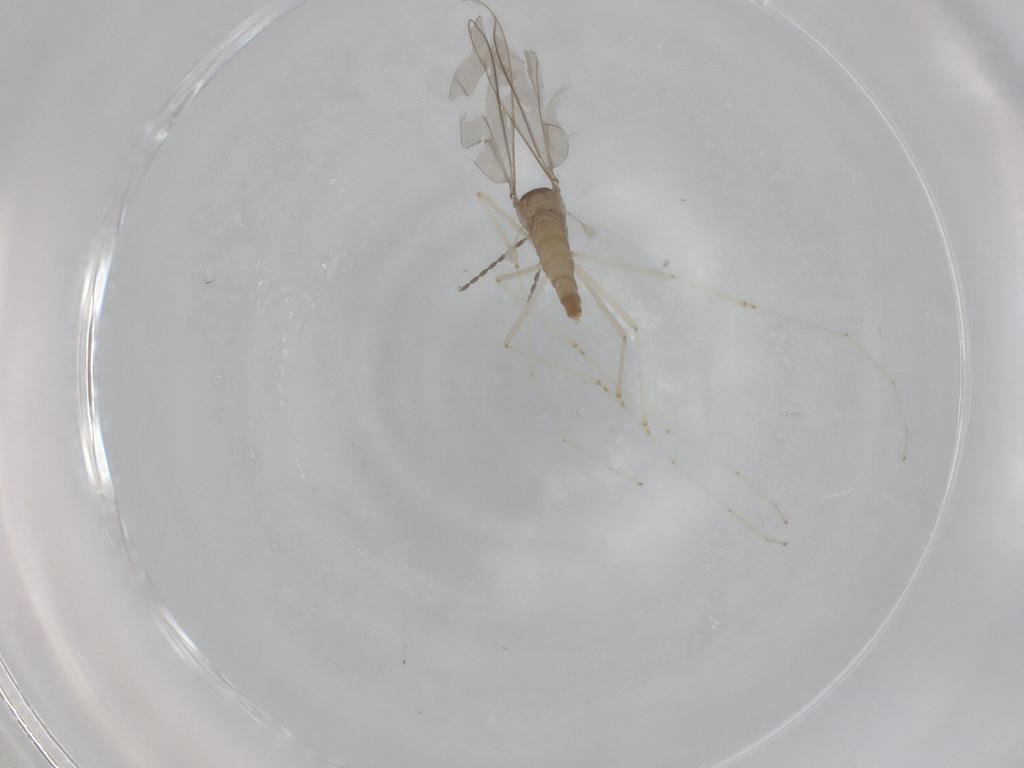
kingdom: Animalia
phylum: Arthropoda
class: Insecta
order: Diptera
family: Cecidomyiidae
